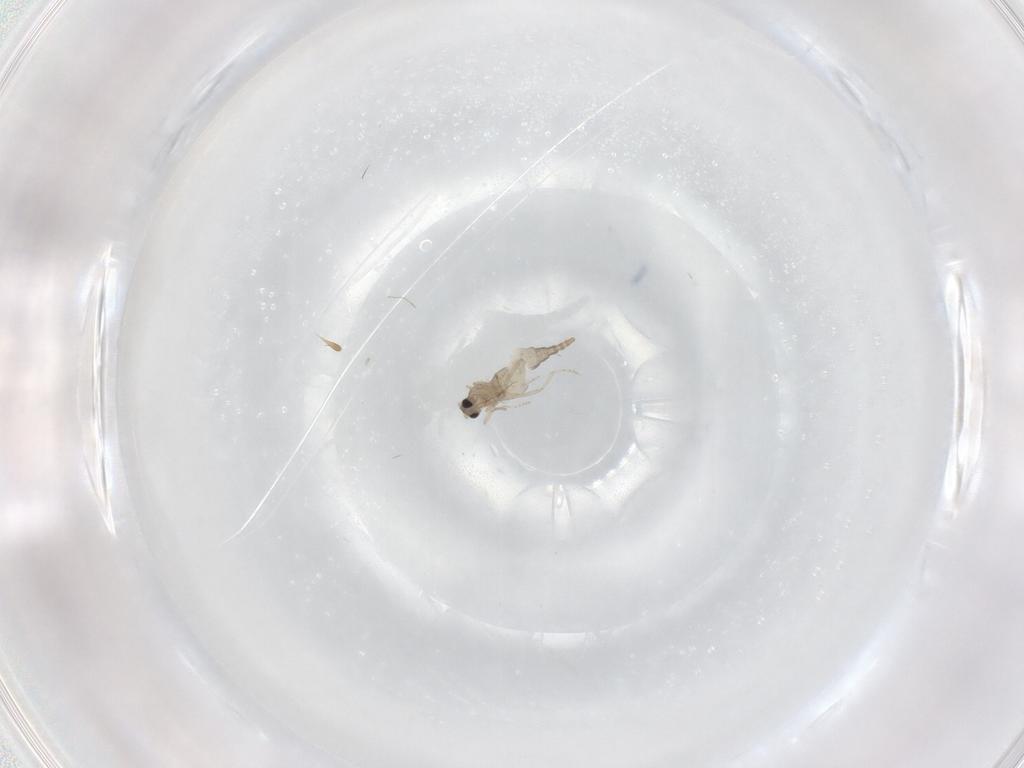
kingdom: Animalia
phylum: Arthropoda
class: Insecta
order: Diptera
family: Cecidomyiidae
